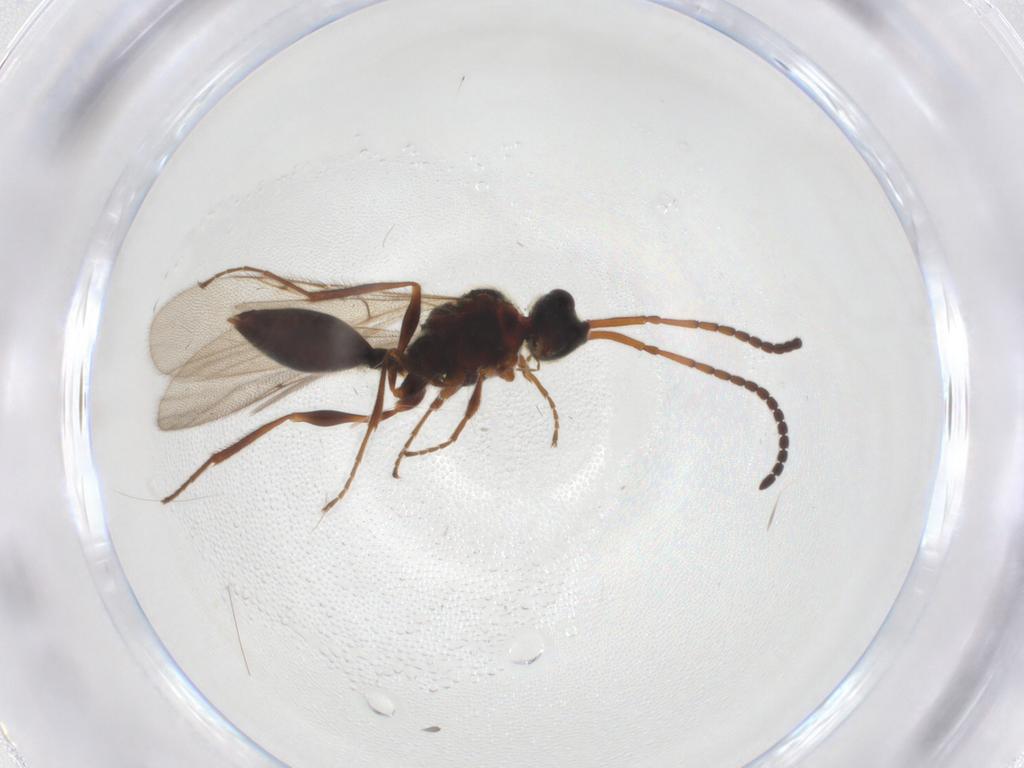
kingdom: Animalia
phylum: Arthropoda
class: Insecta
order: Hymenoptera
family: Diapriidae
